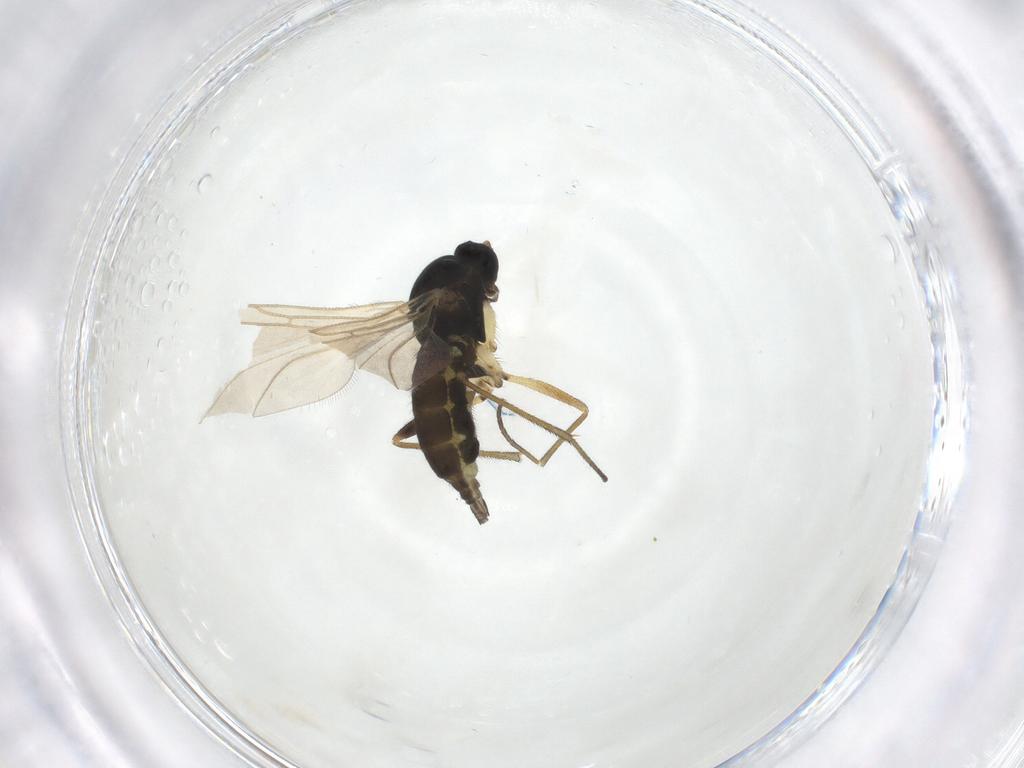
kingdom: Animalia
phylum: Arthropoda
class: Insecta
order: Diptera
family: Sciaridae
